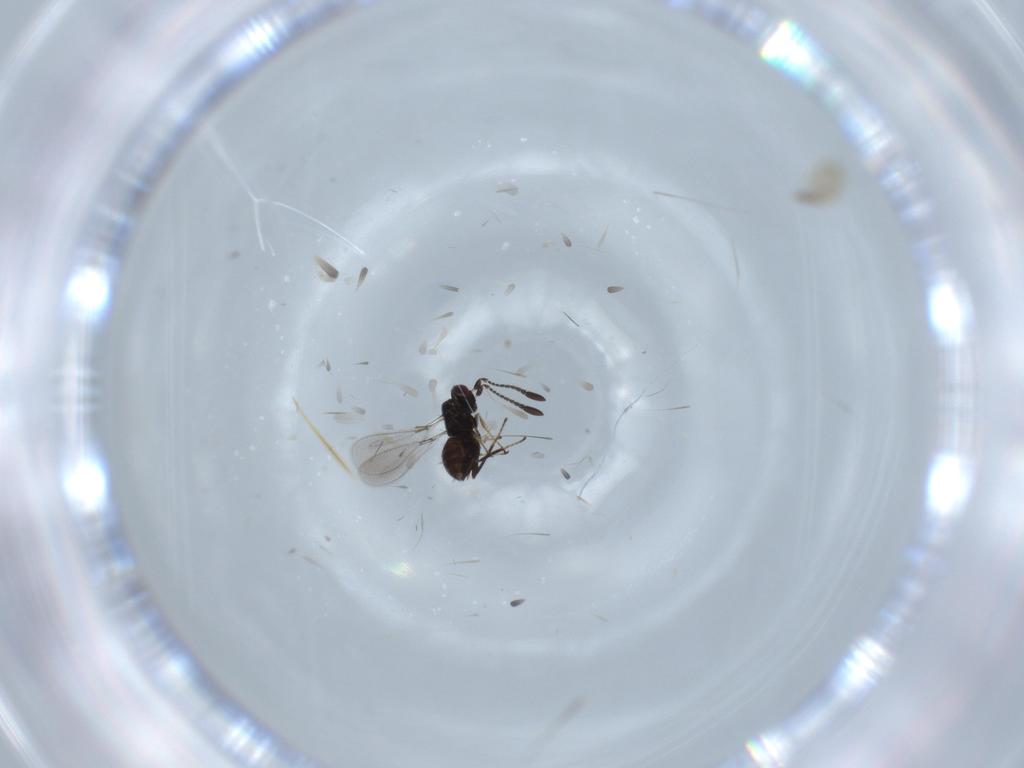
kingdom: Animalia
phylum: Arthropoda
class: Insecta
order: Hymenoptera
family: Mymaridae
